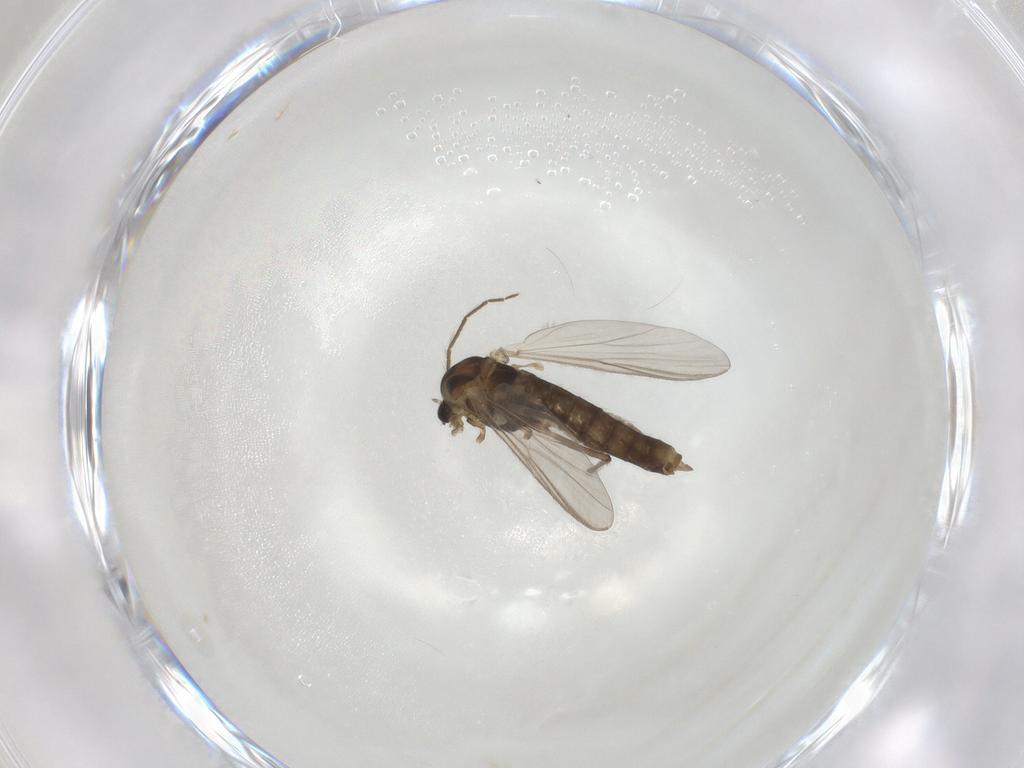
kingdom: Animalia
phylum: Arthropoda
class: Insecta
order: Diptera
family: Chironomidae
